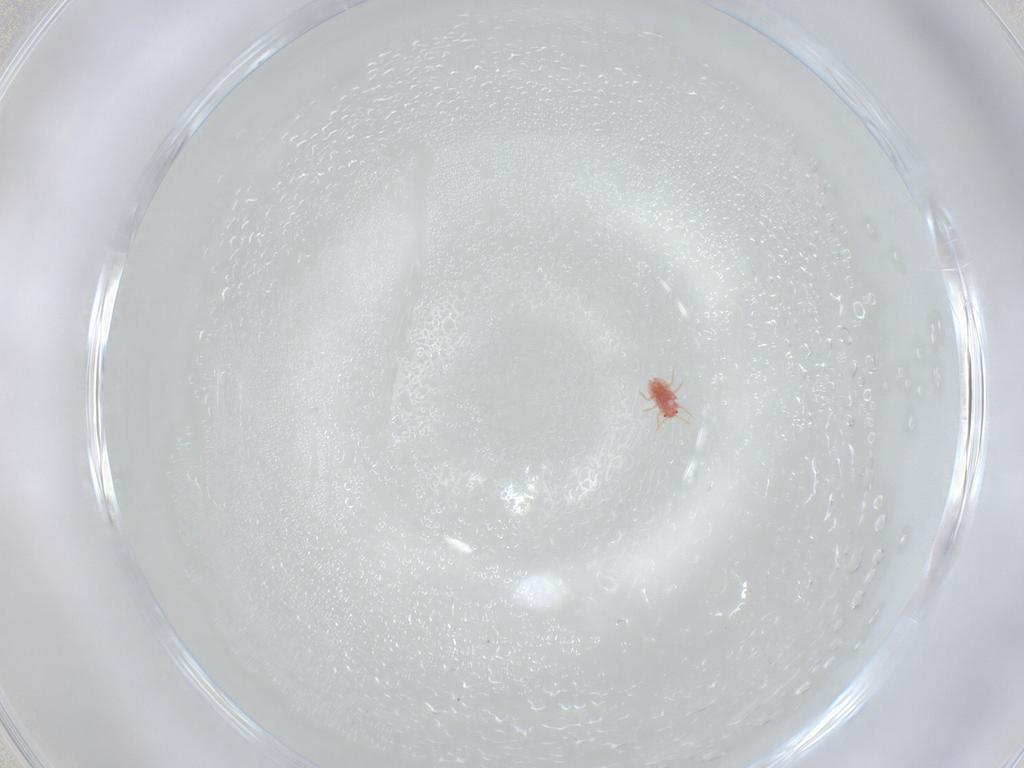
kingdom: Animalia
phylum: Arthropoda
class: Insecta
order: Hemiptera
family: Aleyrodidae
